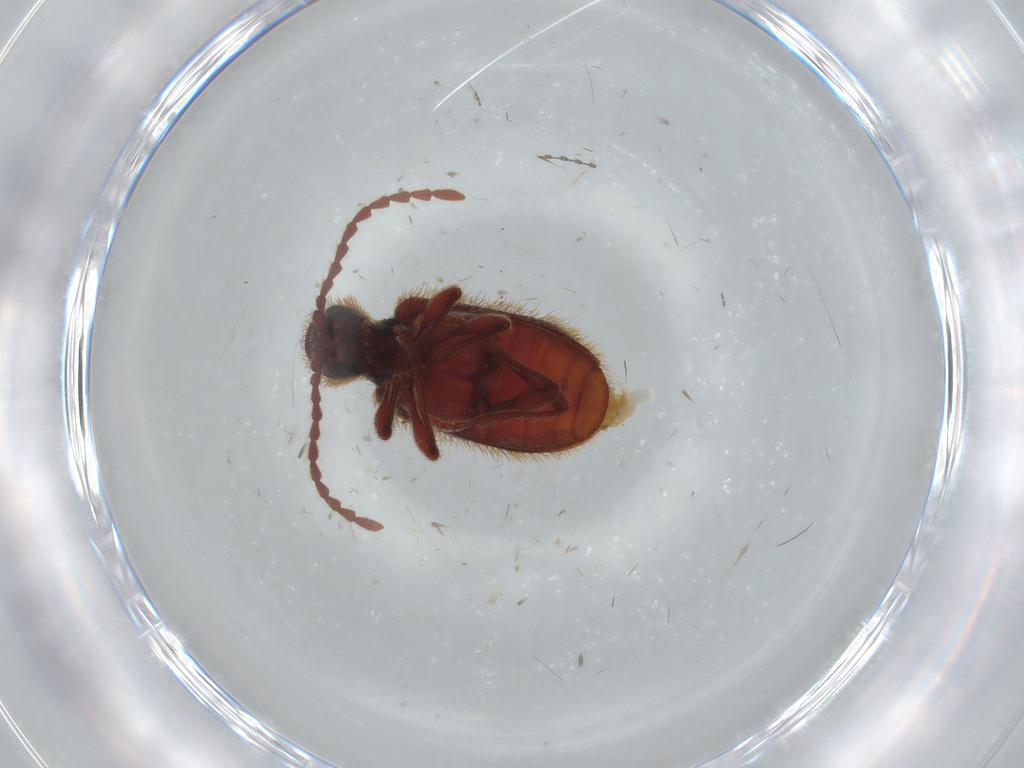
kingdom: Animalia
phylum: Arthropoda
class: Insecta
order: Coleoptera
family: Ptinidae
